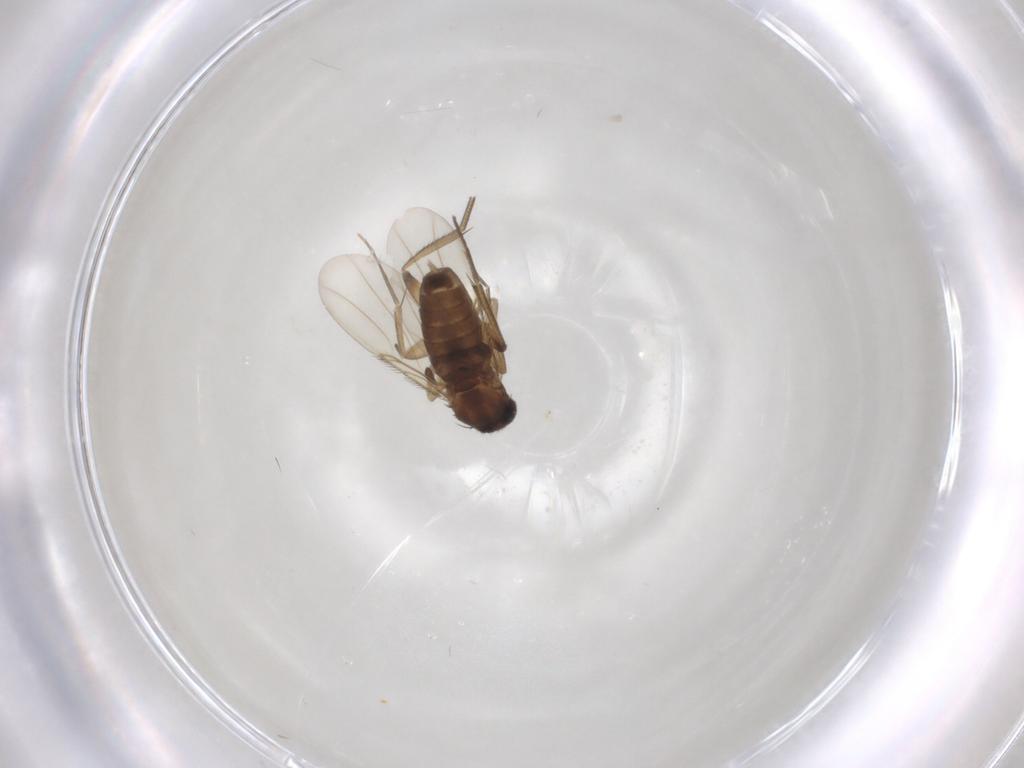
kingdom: Animalia
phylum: Arthropoda
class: Insecta
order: Diptera
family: Phoridae
